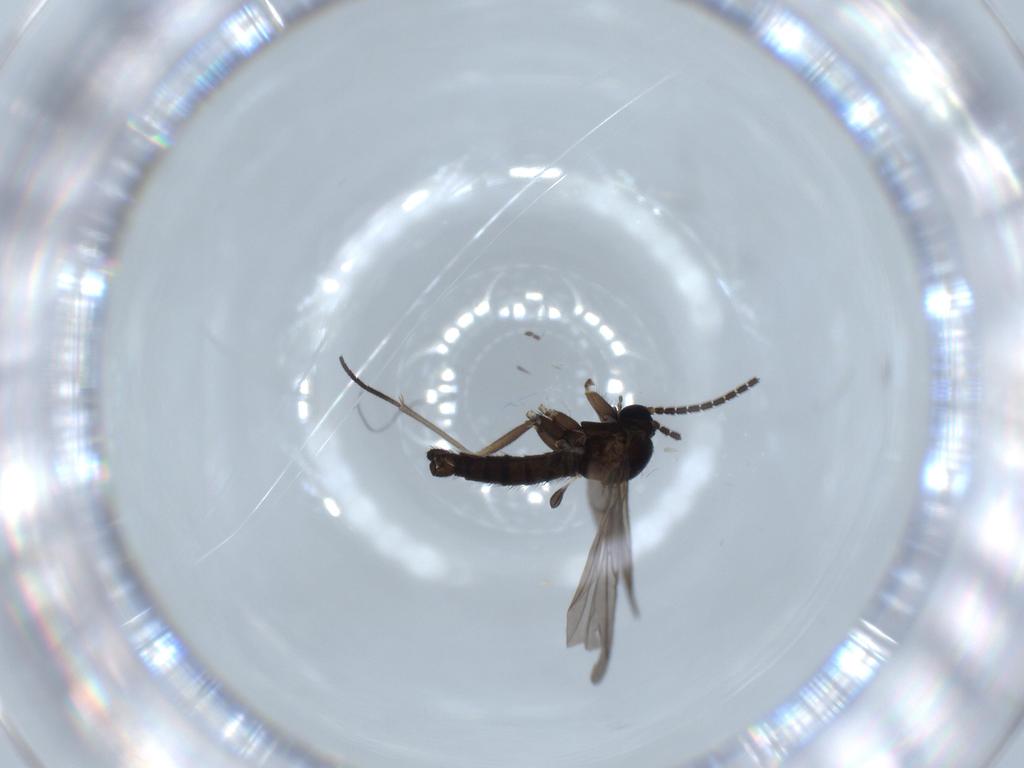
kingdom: Animalia
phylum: Arthropoda
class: Insecta
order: Diptera
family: Sciaridae
